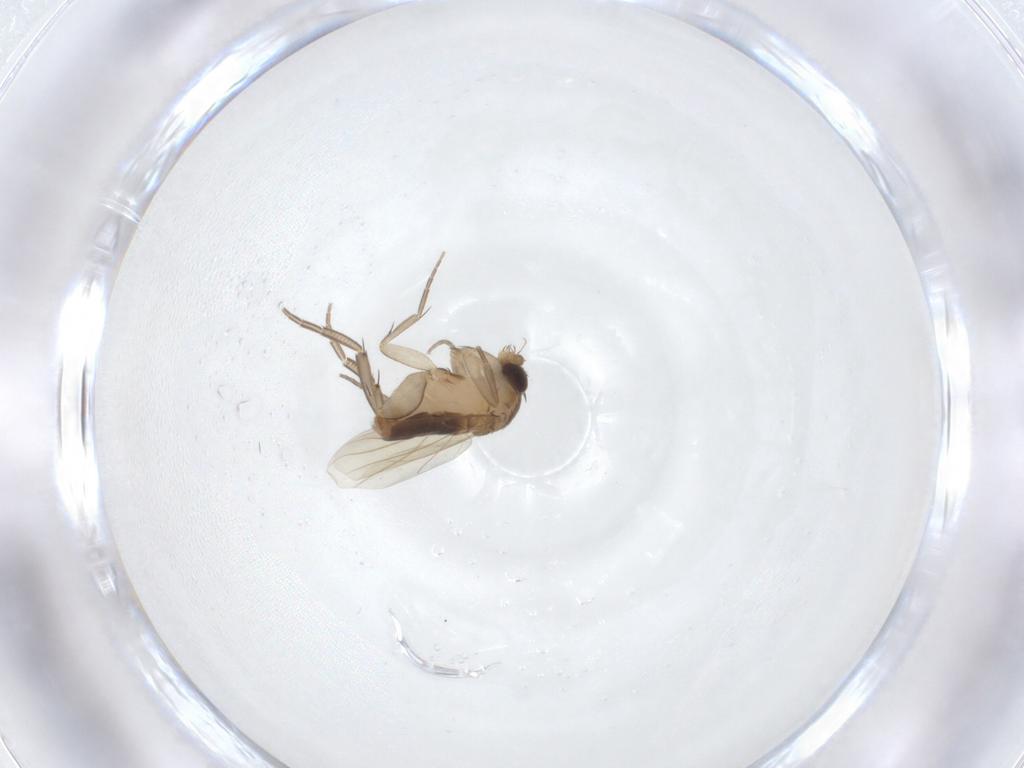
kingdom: Animalia
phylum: Arthropoda
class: Insecta
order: Diptera
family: Phoridae
